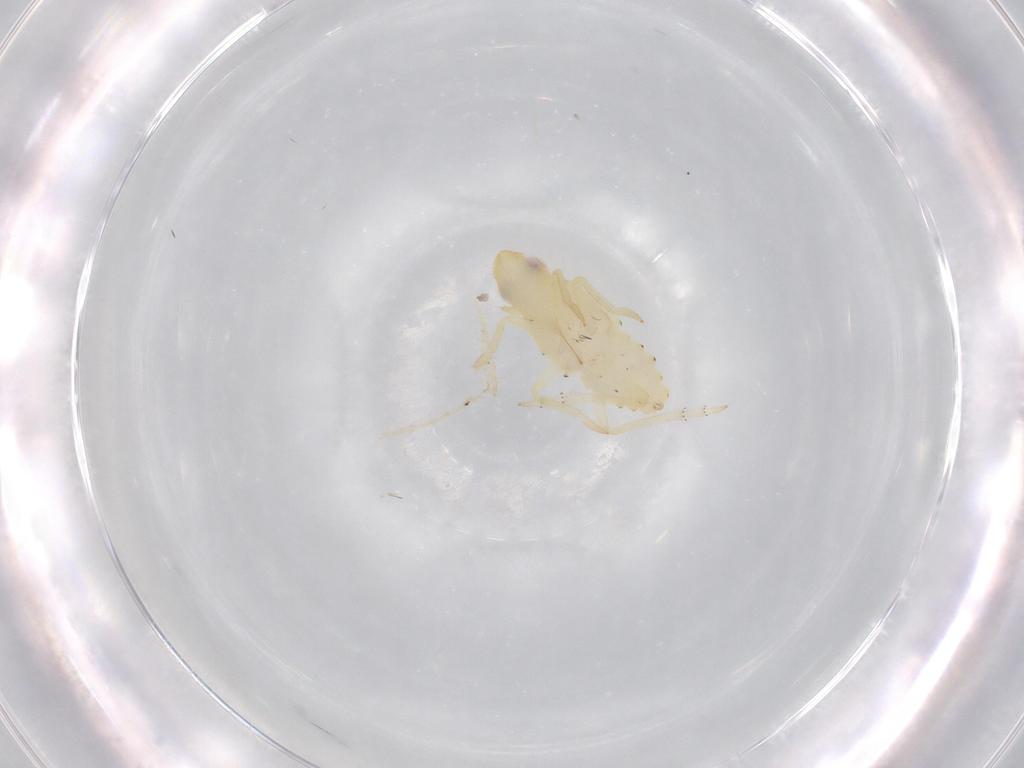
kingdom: Animalia
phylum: Arthropoda
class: Insecta
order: Hemiptera
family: Tropiduchidae
